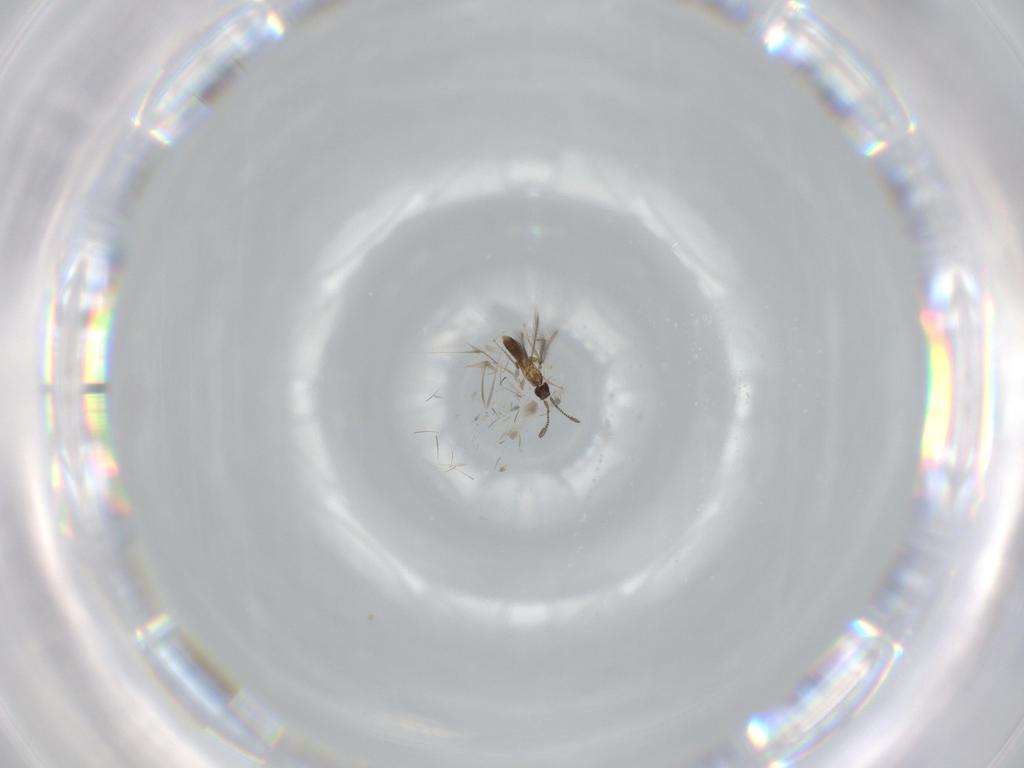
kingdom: Animalia
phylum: Arthropoda
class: Insecta
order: Hymenoptera
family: Mymaridae
